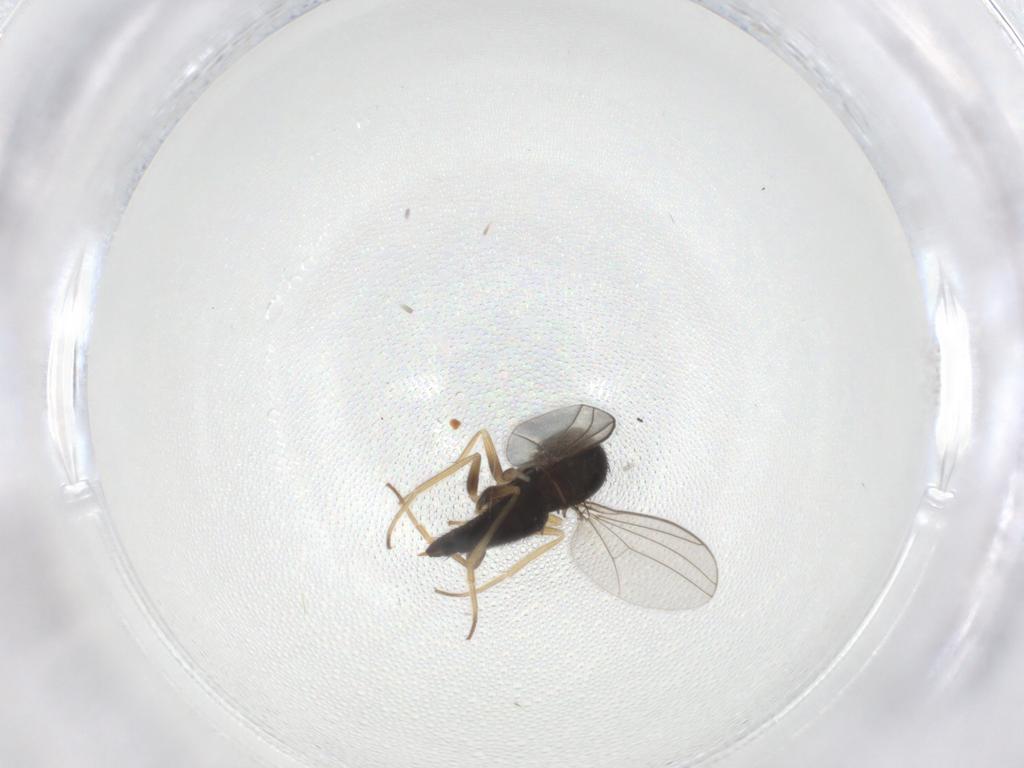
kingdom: Animalia
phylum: Arthropoda
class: Insecta
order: Diptera
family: Dolichopodidae
